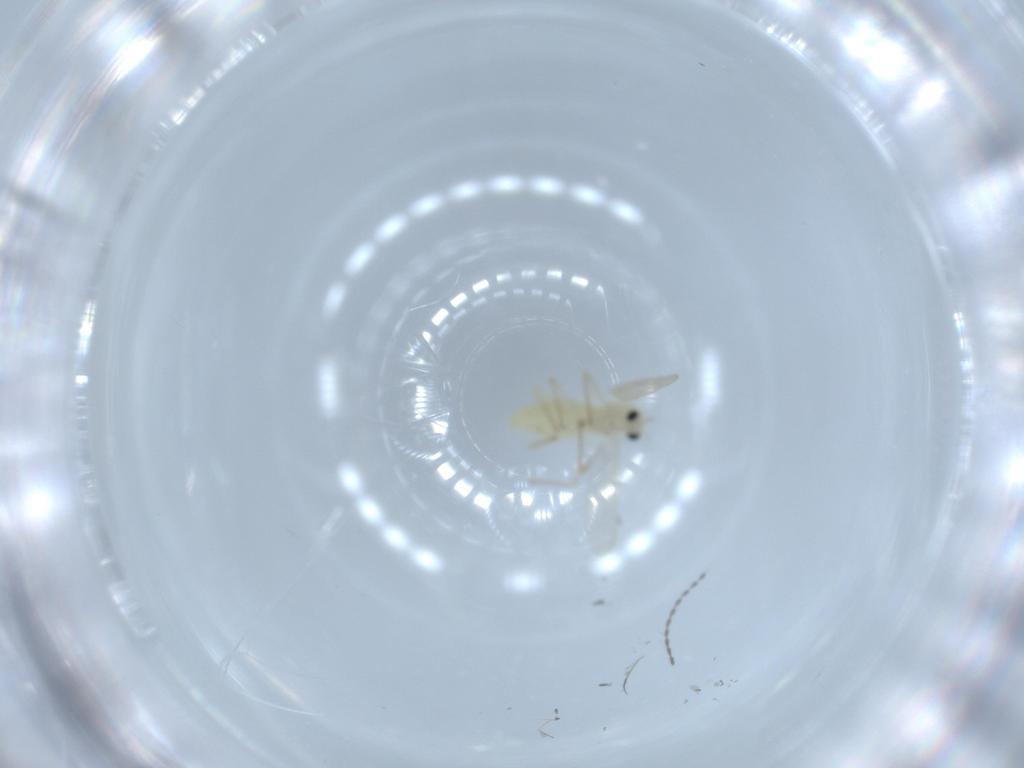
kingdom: Animalia
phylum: Arthropoda
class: Insecta
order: Diptera
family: Chironomidae
